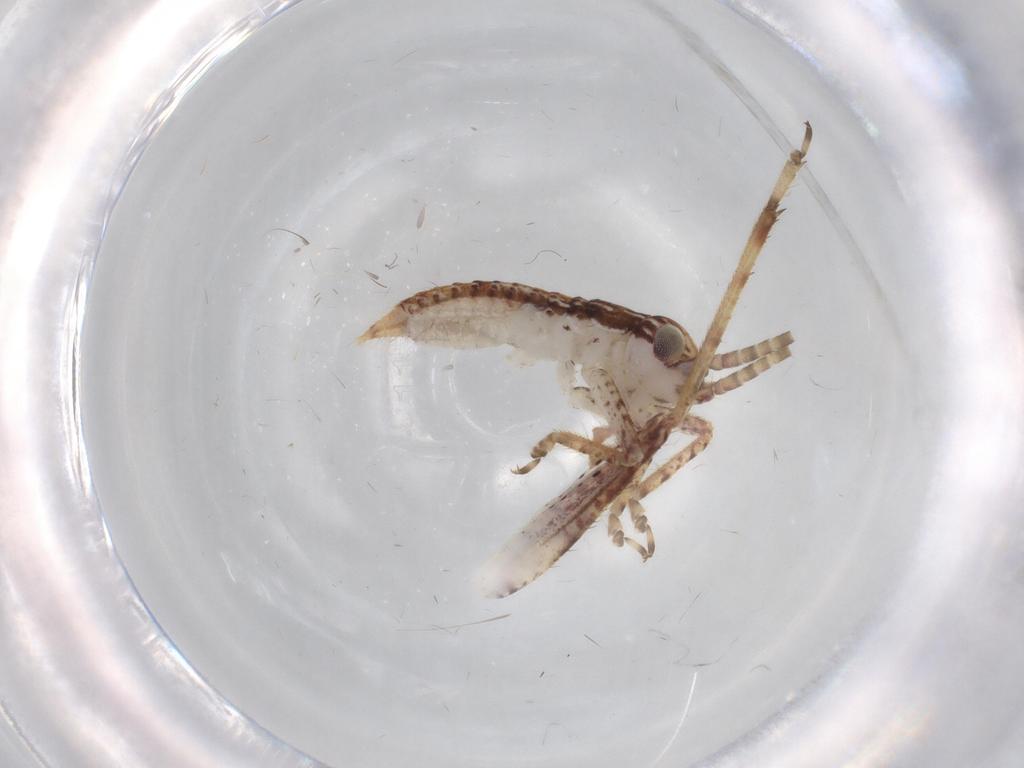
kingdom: Animalia
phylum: Arthropoda
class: Insecta
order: Orthoptera
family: Gryllidae
